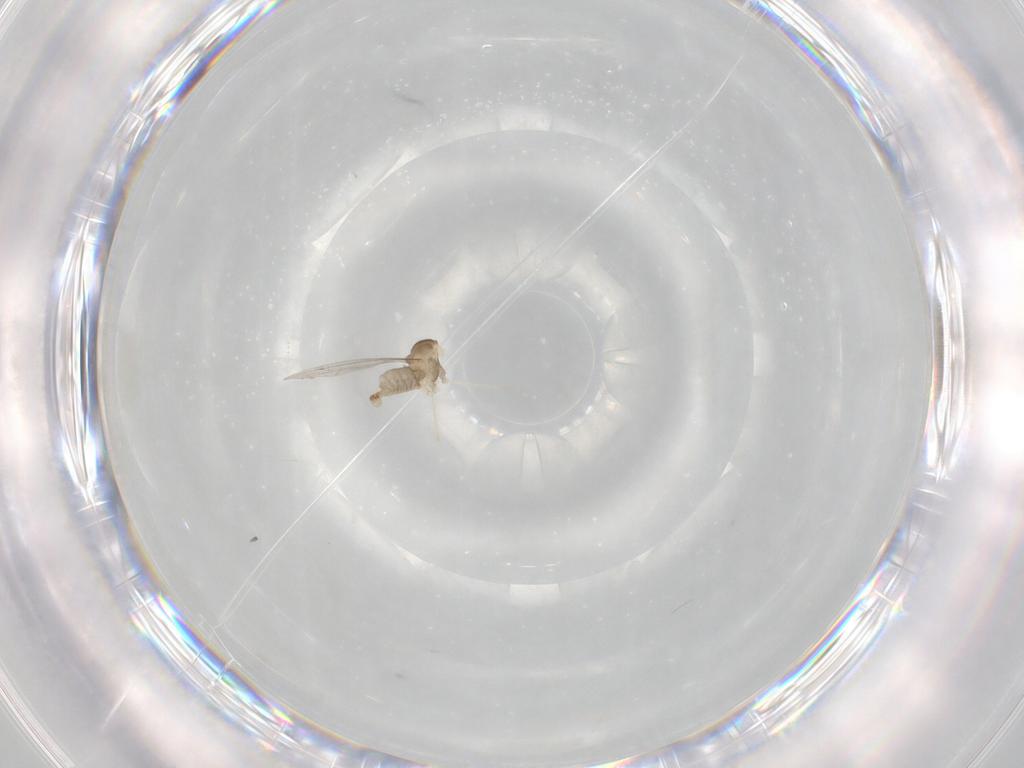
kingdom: Animalia
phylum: Arthropoda
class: Insecta
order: Diptera
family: Cecidomyiidae
